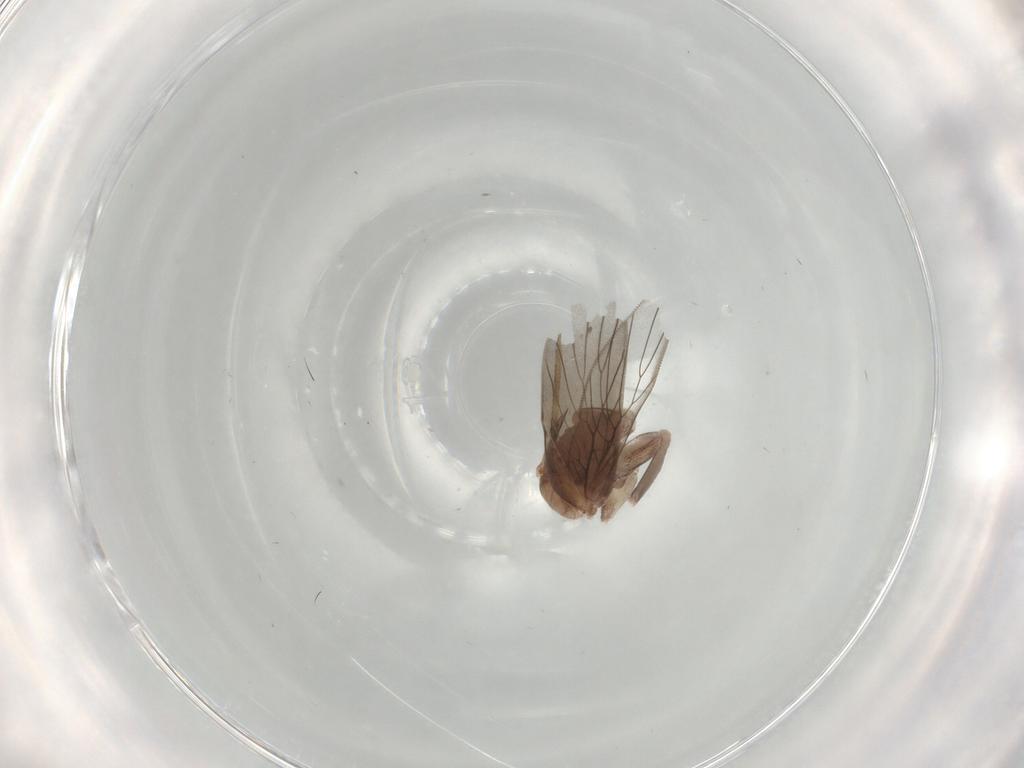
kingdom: Animalia
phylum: Arthropoda
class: Insecta
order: Psocodea
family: Lepidopsocidae
